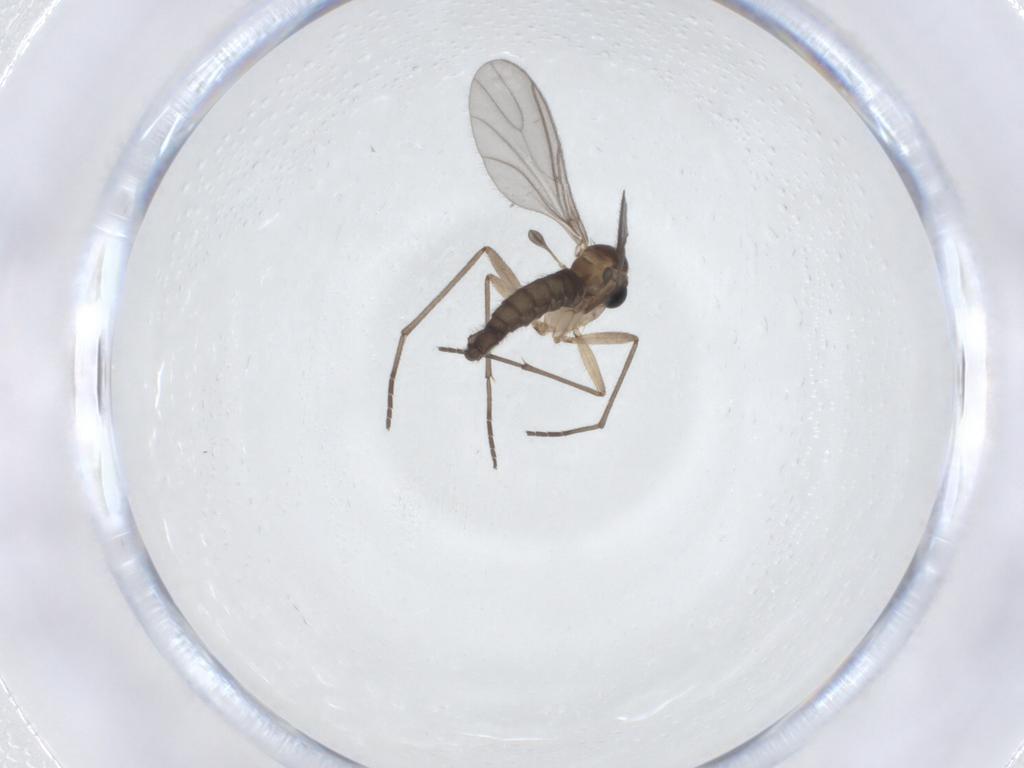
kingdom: Animalia
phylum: Arthropoda
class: Insecta
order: Diptera
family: Sciaridae
